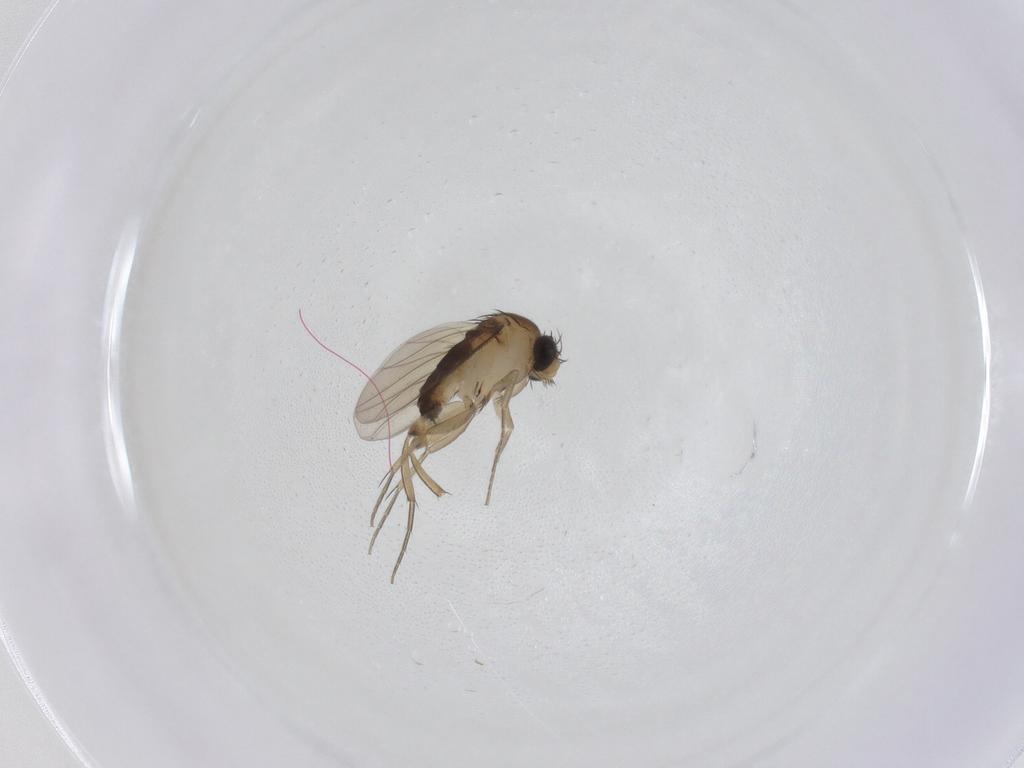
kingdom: Animalia
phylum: Arthropoda
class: Insecta
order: Diptera
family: Phoridae
